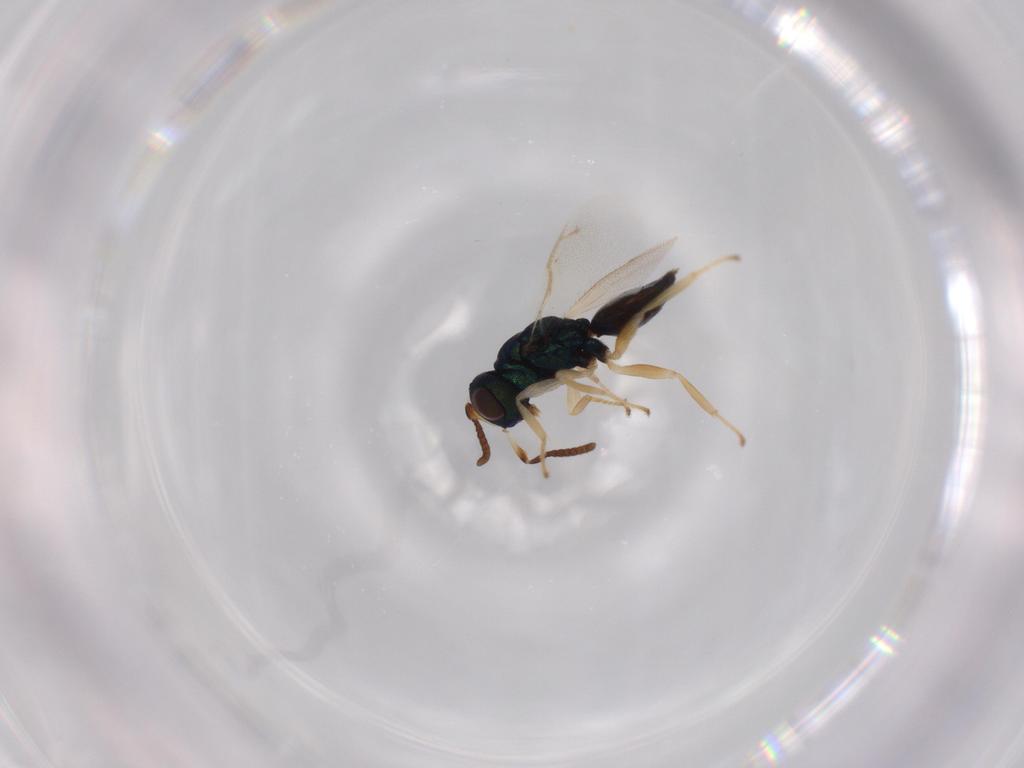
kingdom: Animalia
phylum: Arthropoda
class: Insecta
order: Hymenoptera
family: Pteromalidae
